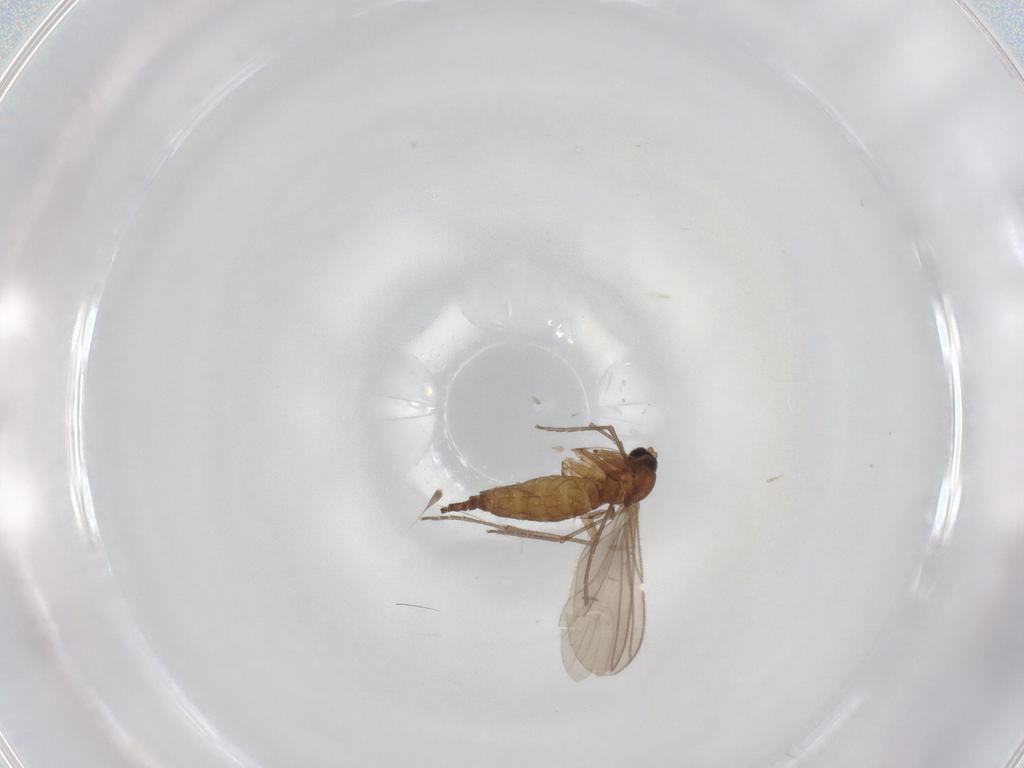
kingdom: Animalia
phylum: Arthropoda
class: Insecta
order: Diptera
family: Sciaridae
